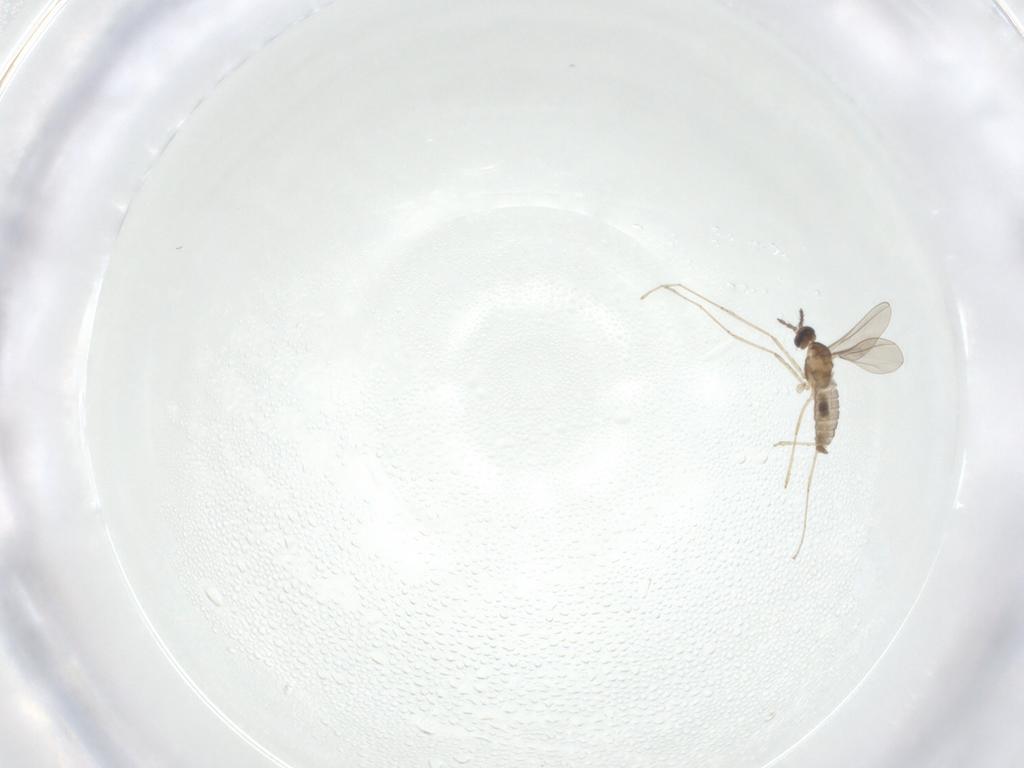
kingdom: Animalia
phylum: Arthropoda
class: Insecta
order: Diptera
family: Cecidomyiidae
